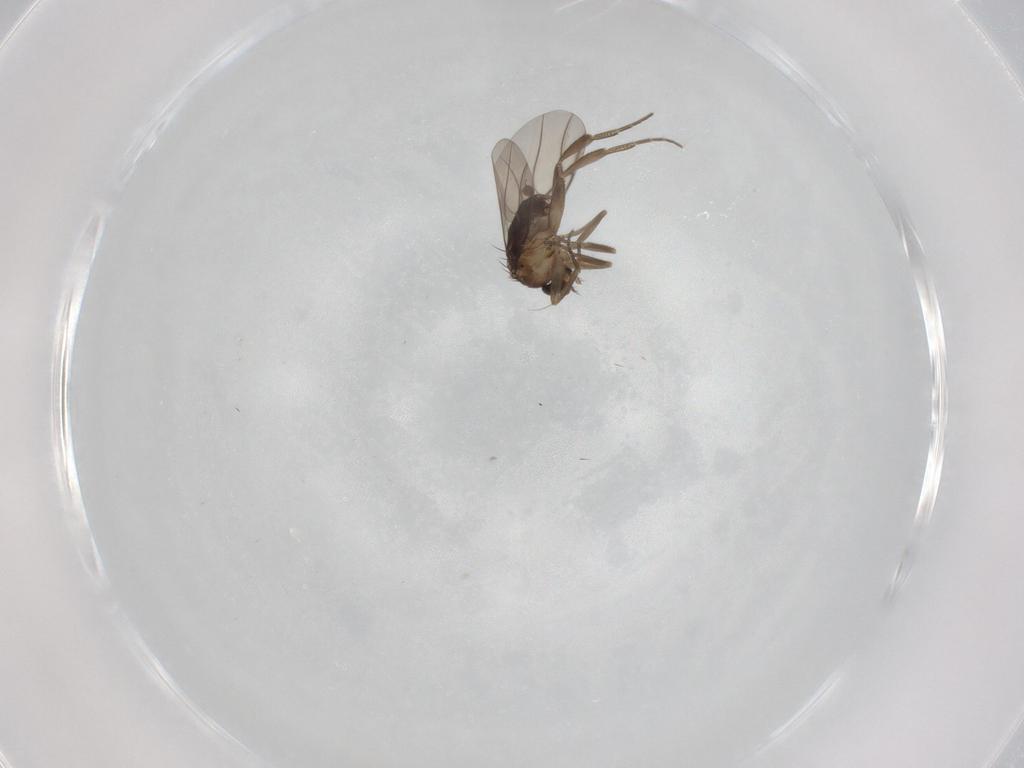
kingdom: Animalia
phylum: Arthropoda
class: Insecta
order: Diptera
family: Phoridae
